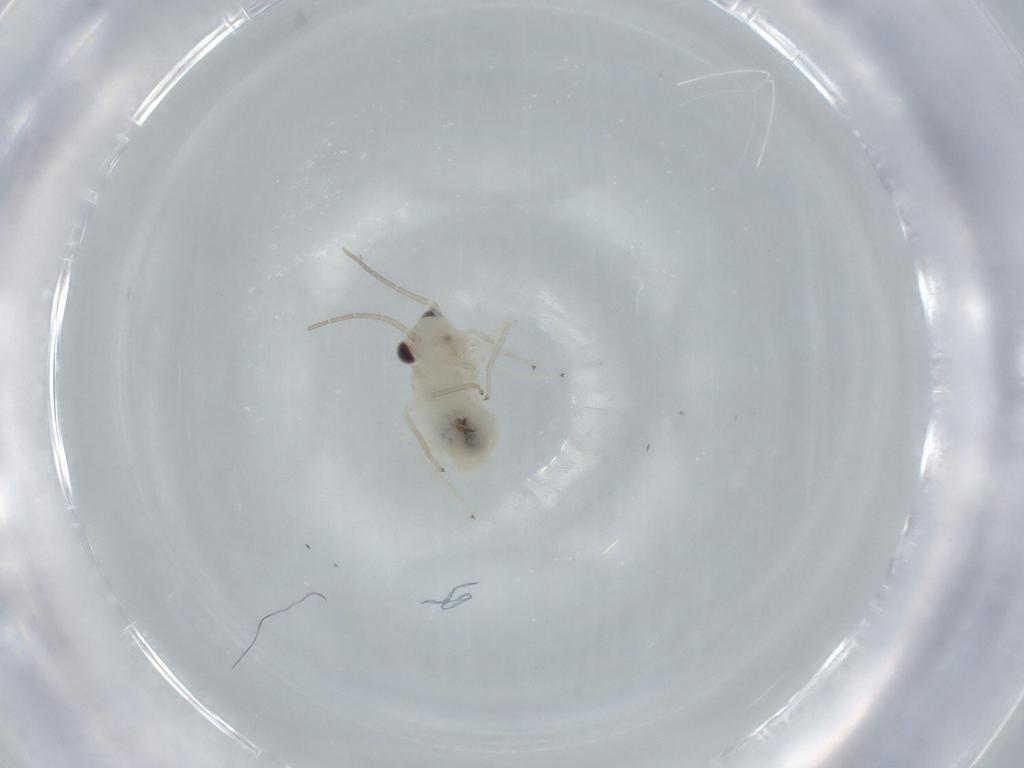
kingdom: Animalia
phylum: Arthropoda
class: Insecta
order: Psocodea
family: Caeciliusidae
